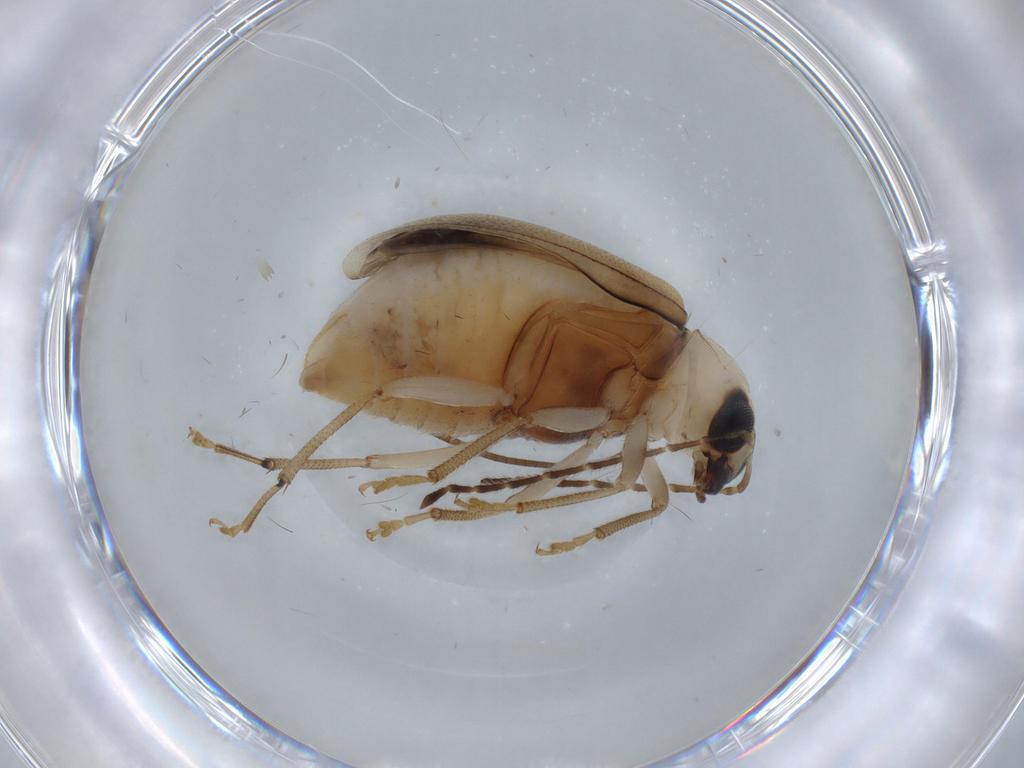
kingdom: Animalia
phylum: Arthropoda
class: Insecta
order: Coleoptera
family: Chrysomelidae
